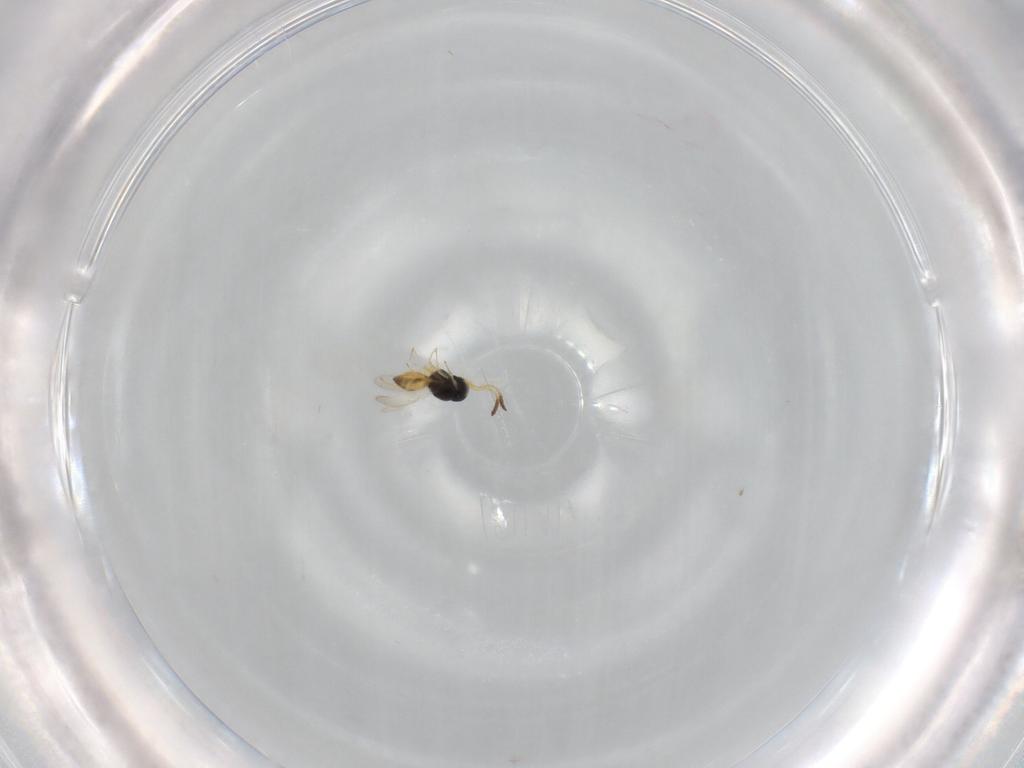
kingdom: Animalia
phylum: Arthropoda
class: Insecta
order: Hymenoptera
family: Scelionidae
